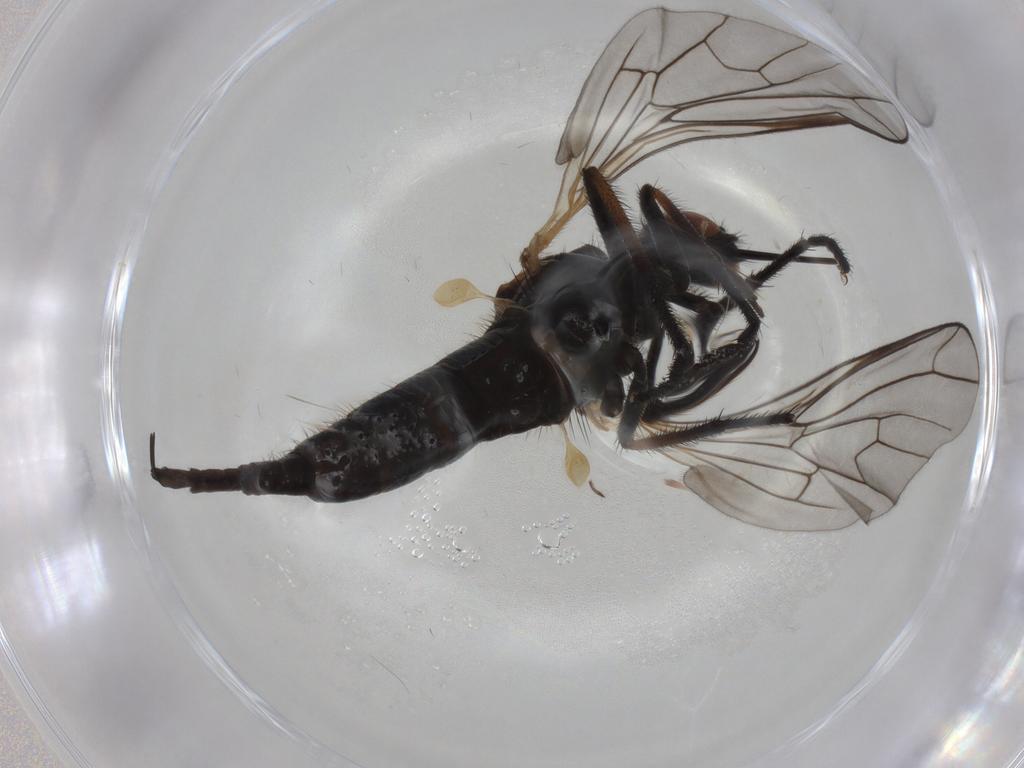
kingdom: Animalia
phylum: Arthropoda
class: Insecta
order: Diptera
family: Empididae
